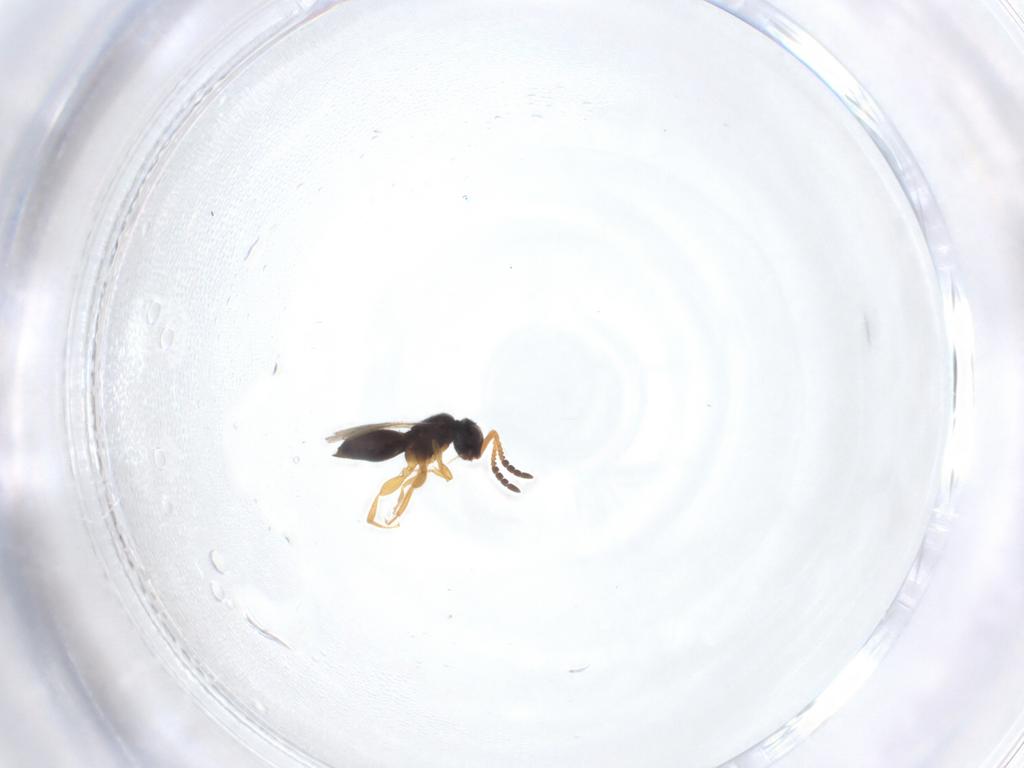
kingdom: Animalia
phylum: Arthropoda
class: Insecta
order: Hymenoptera
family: Ceraphronidae
